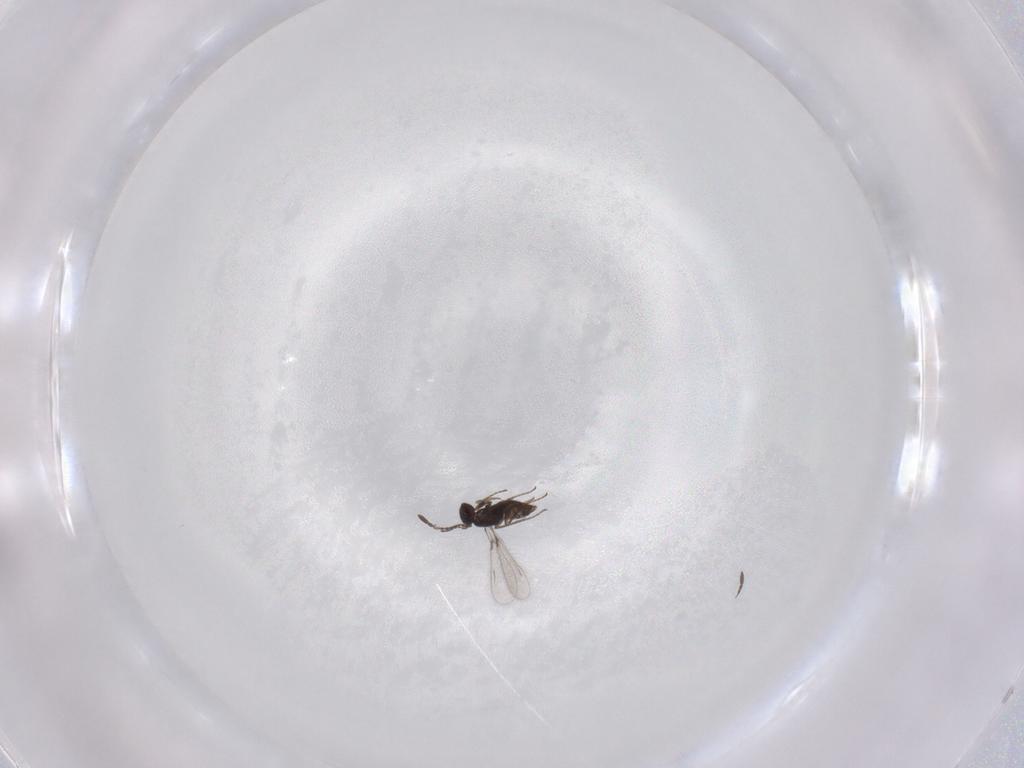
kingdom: Animalia
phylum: Arthropoda
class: Insecta
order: Hymenoptera
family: Mymaridae
